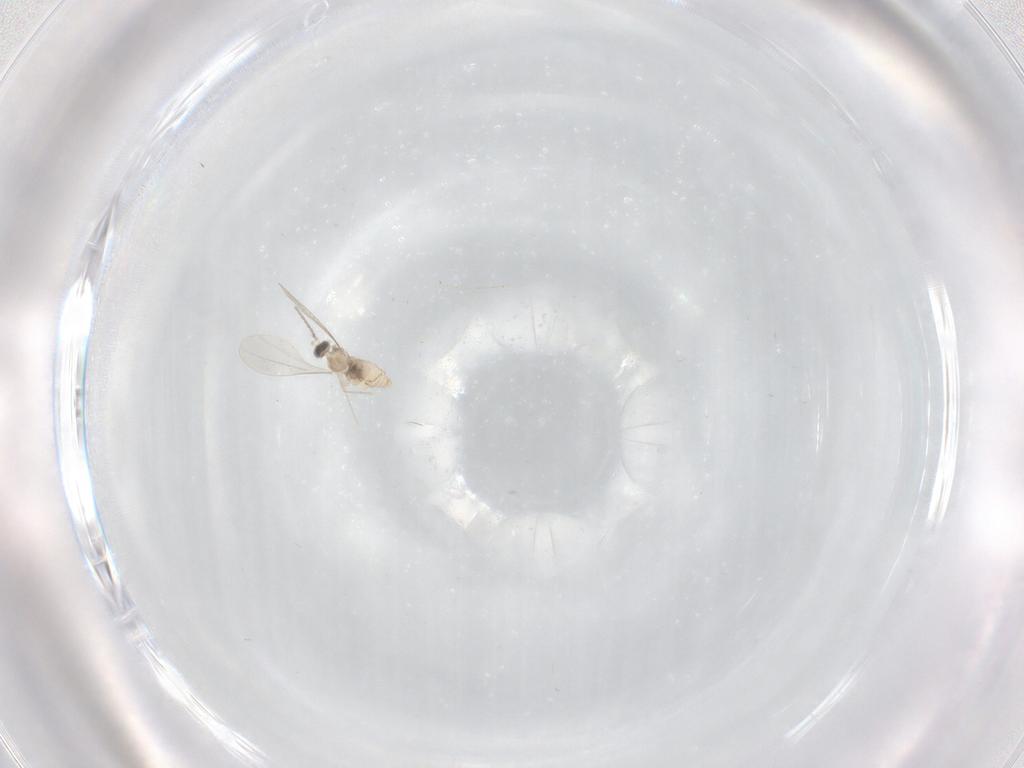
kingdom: Animalia
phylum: Arthropoda
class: Insecta
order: Diptera
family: Cecidomyiidae
